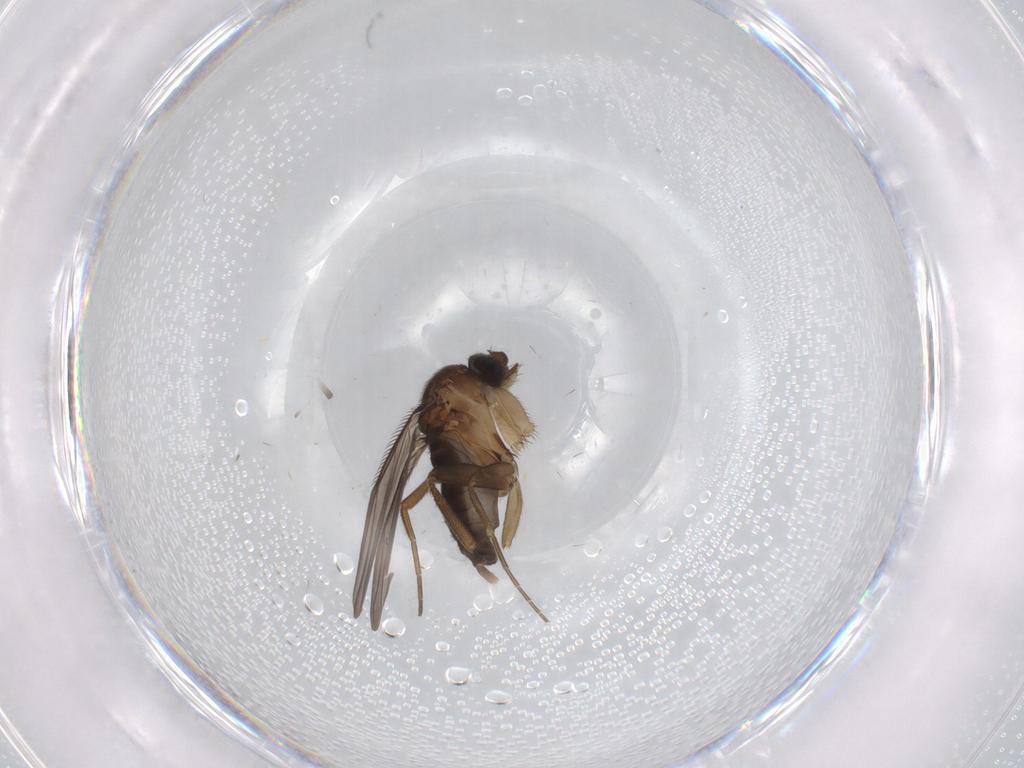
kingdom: Animalia
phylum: Arthropoda
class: Insecta
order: Diptera
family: Phoridae
